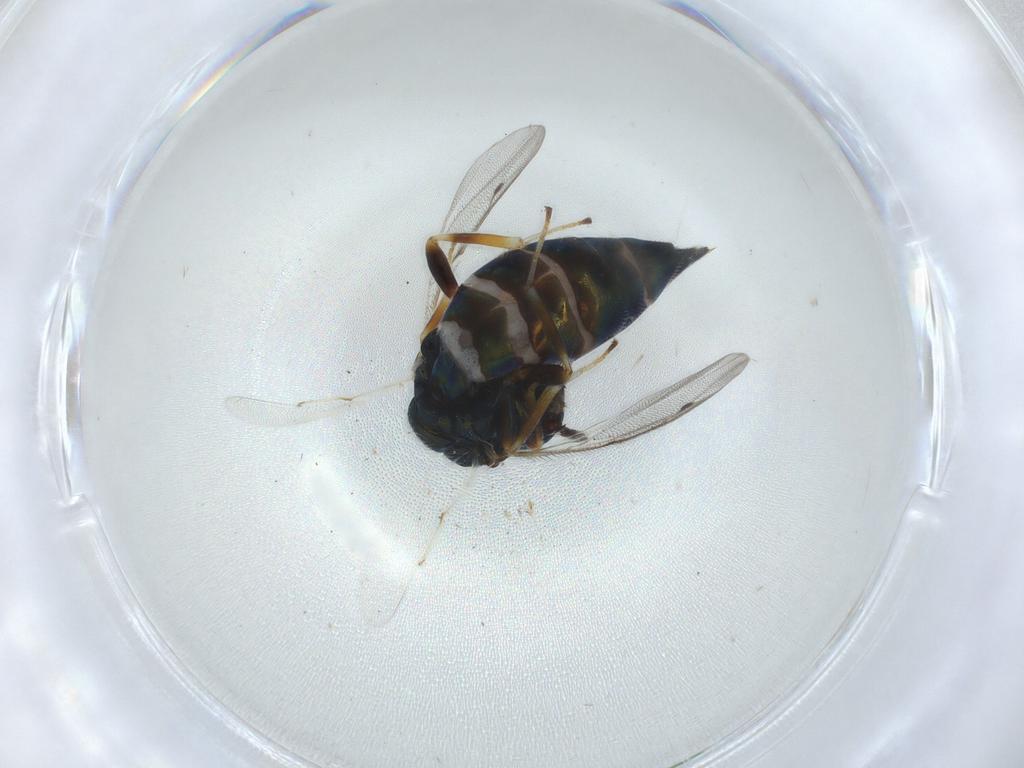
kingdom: Animalia
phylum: Arthropoda
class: Insecta
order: Hymenoptera
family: Pteromalidae
